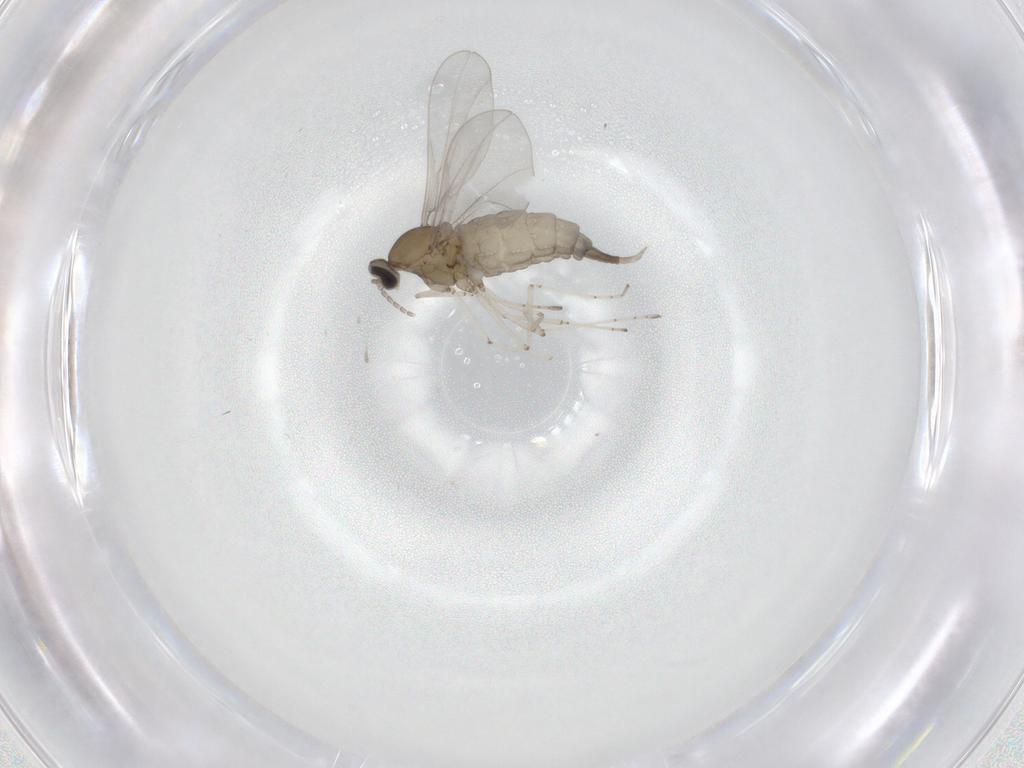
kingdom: Animalia
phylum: Arthropoda
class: Insecta
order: Diptera
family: Cecidomyiidae
